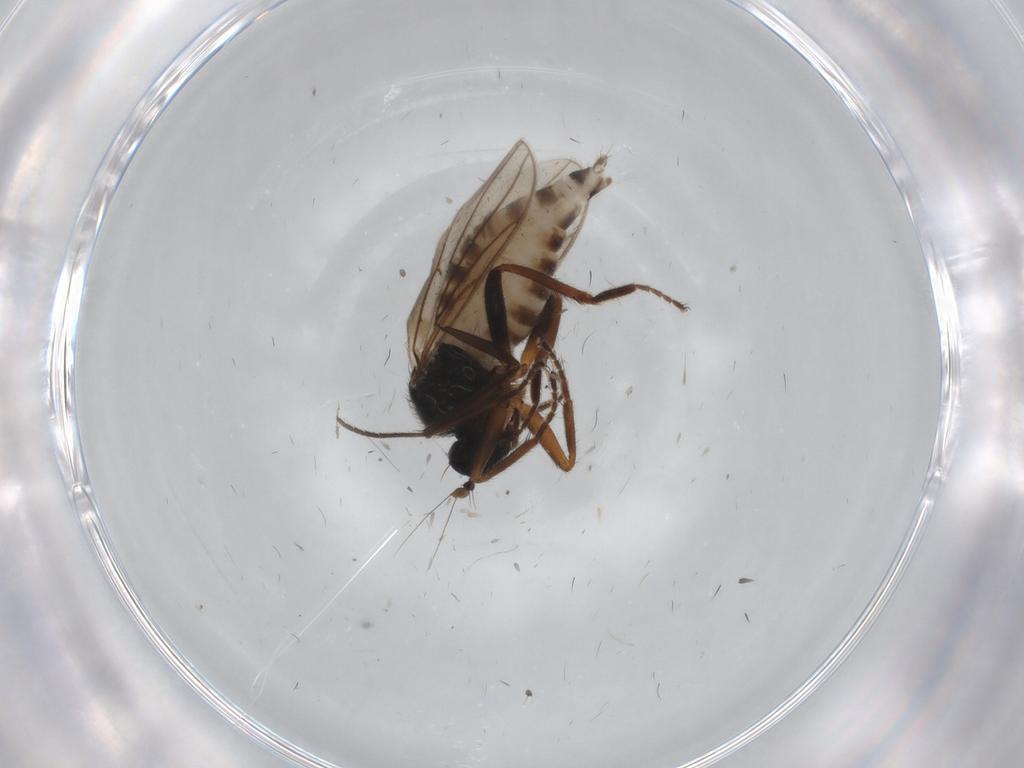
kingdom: Animalia
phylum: Arthropoda
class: Insecta
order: Diptera
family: Sciaridae
